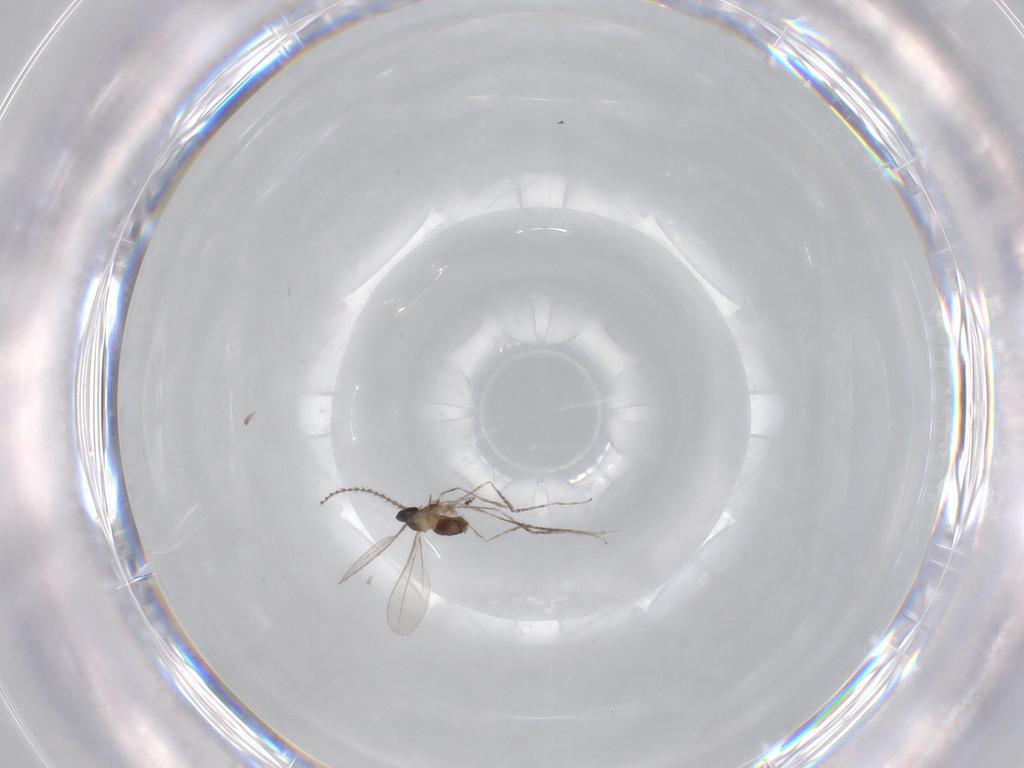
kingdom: Animalia
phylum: Arthropoda
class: Insecta
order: Diptera
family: Cecidomyiidae
